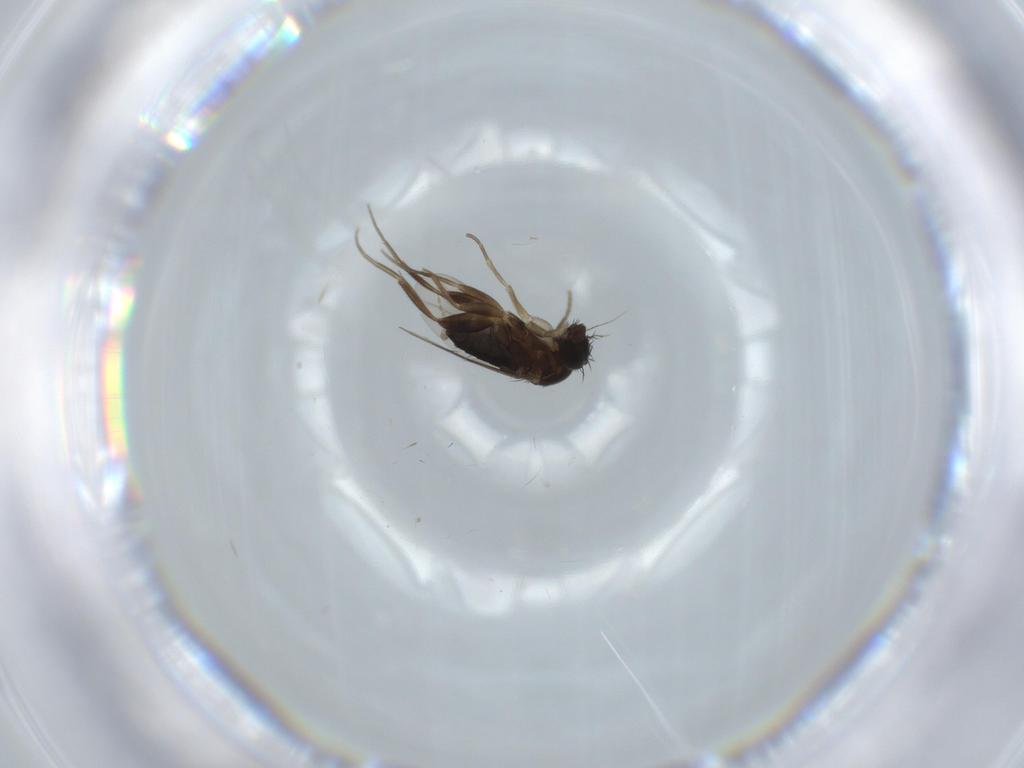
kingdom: Animalia
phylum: Arthropoda
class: Insecta
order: Diptera
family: Phoridae
